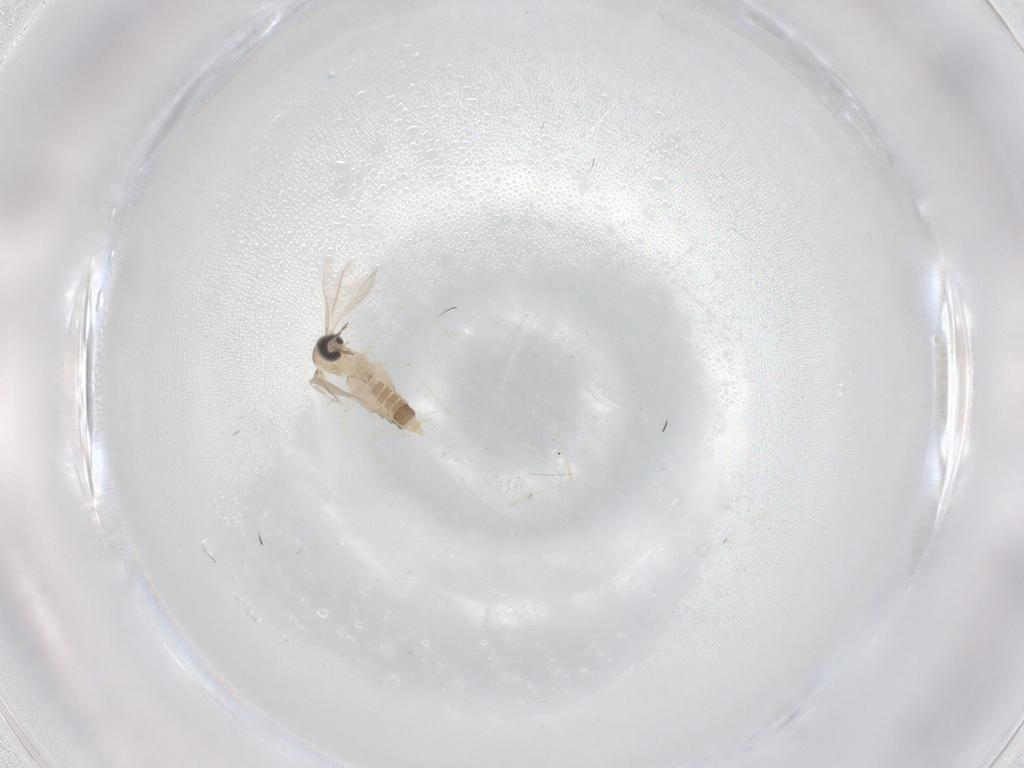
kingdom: Animalia
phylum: Arthropoda
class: Insecta
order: Diptera
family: Cecidomyiidae
